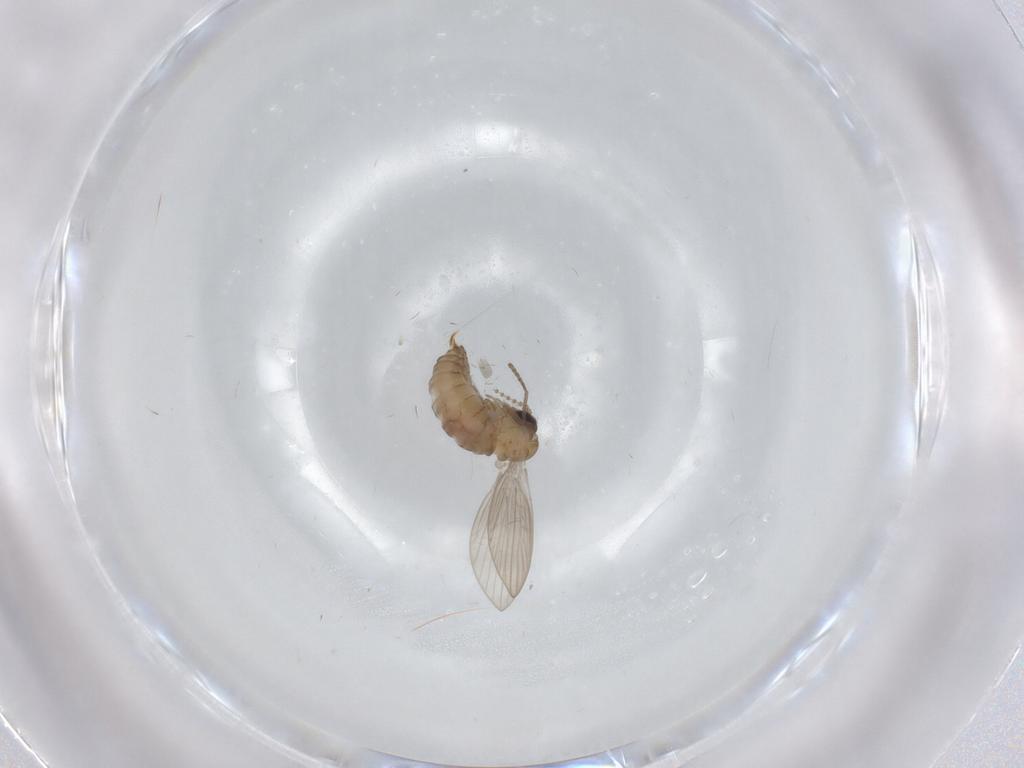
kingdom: Animalia
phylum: Arthropoda
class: Insecta
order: Diptera
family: Psychodidae
